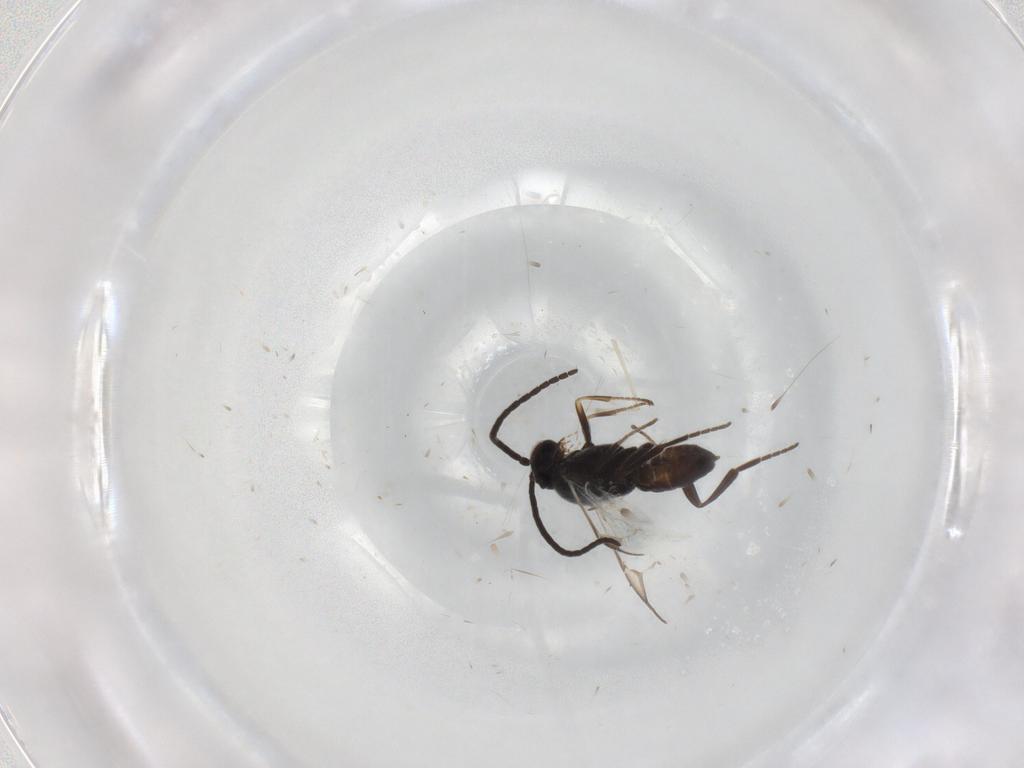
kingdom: Animalia
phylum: Arthropoda
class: Insecta
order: Hymenoptera
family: Braconidae
